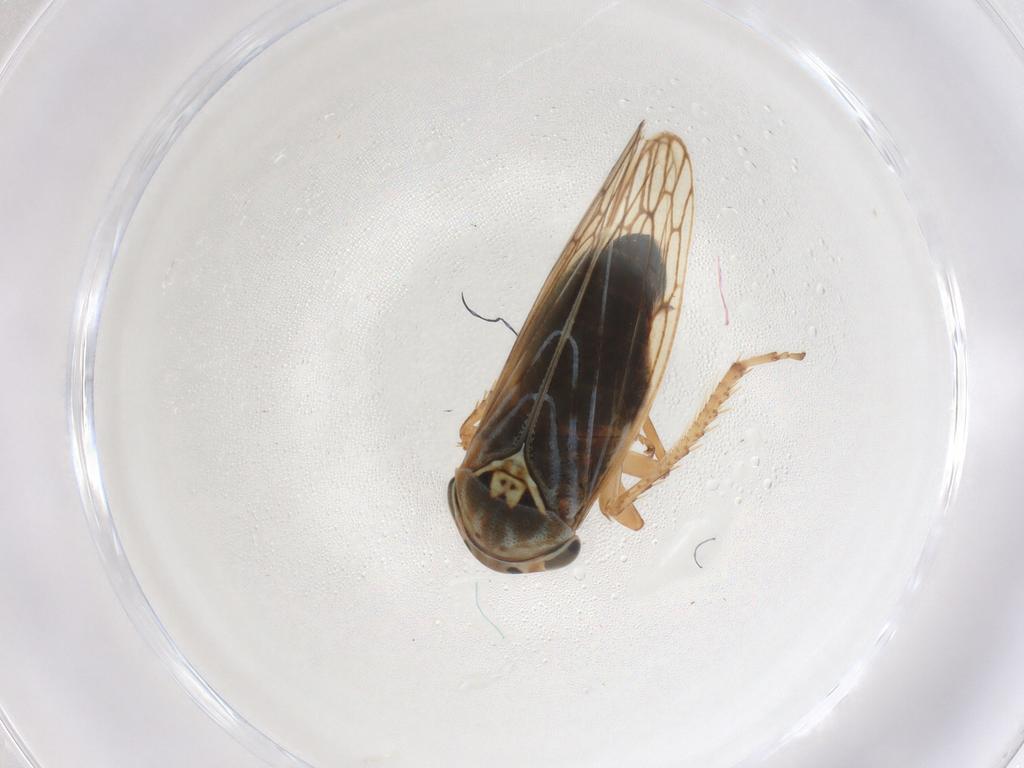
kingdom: Animalia
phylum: Arthropoda
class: Insecta
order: Hemiptera
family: Cicadellidae
